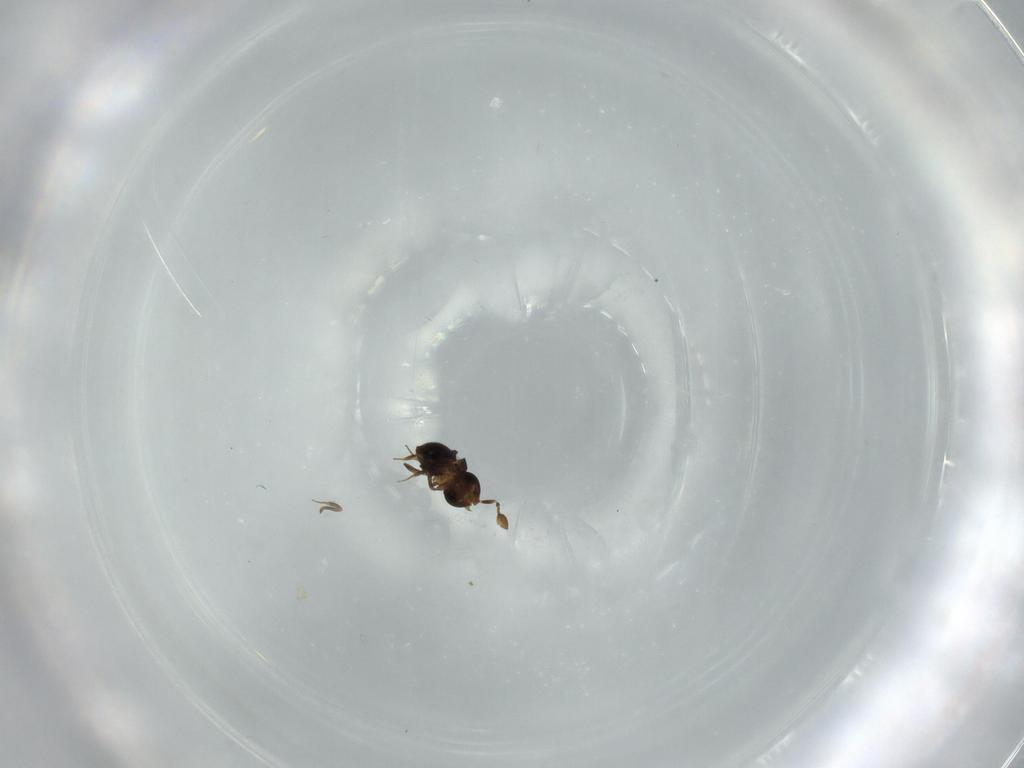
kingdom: Animalia
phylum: Arthropoda
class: Insecta
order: Hymenoptera
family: Scelionidae
